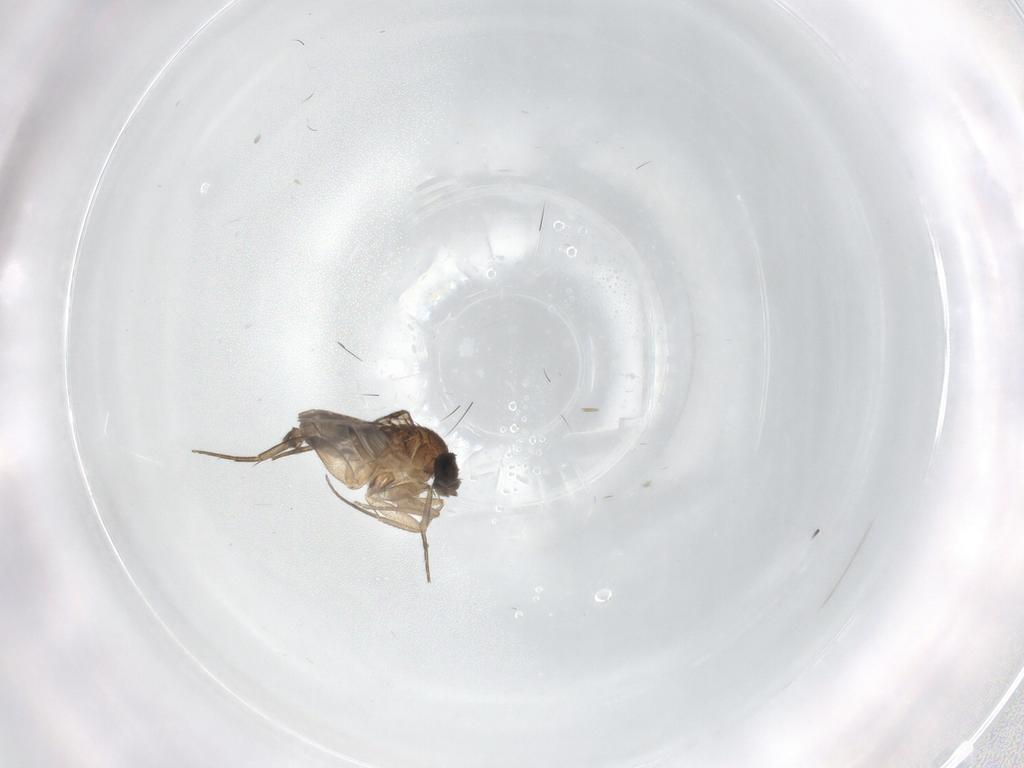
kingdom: Animalia
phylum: Arthropoda
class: Insecta
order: Diptera
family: Phoridae
